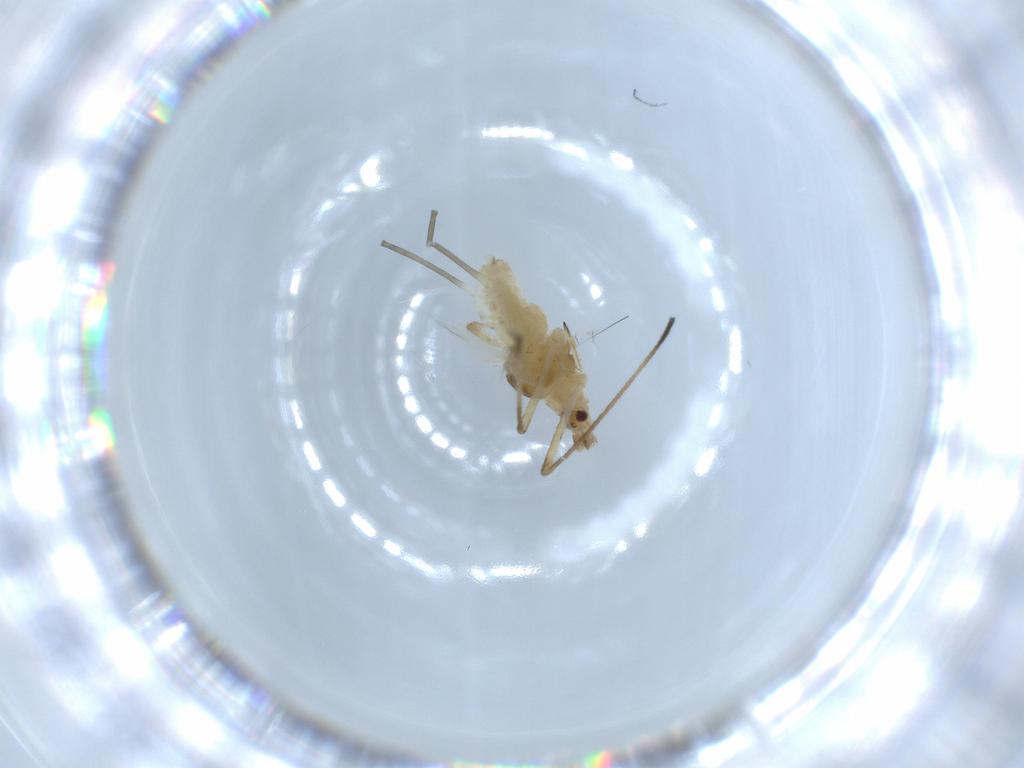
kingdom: Animalia
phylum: Arthropoda
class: Insecta
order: Hemiptera
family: Aphididae
